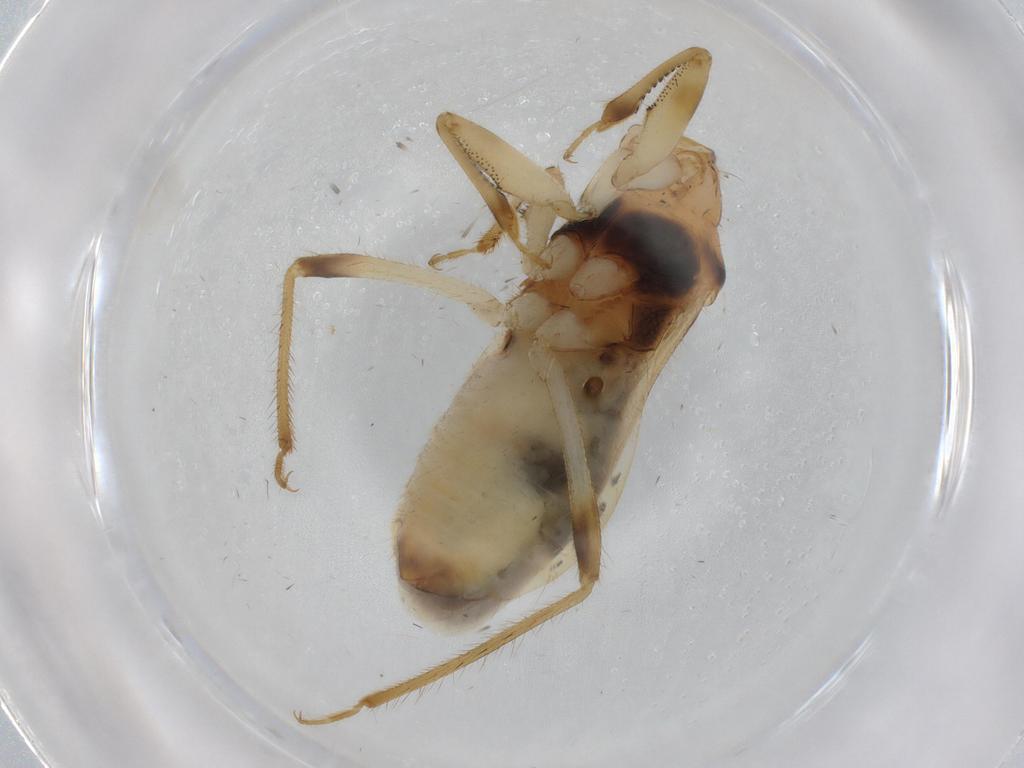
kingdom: Animalia
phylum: Arthropoda
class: Insecta
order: Hemiptera
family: Nabidae
